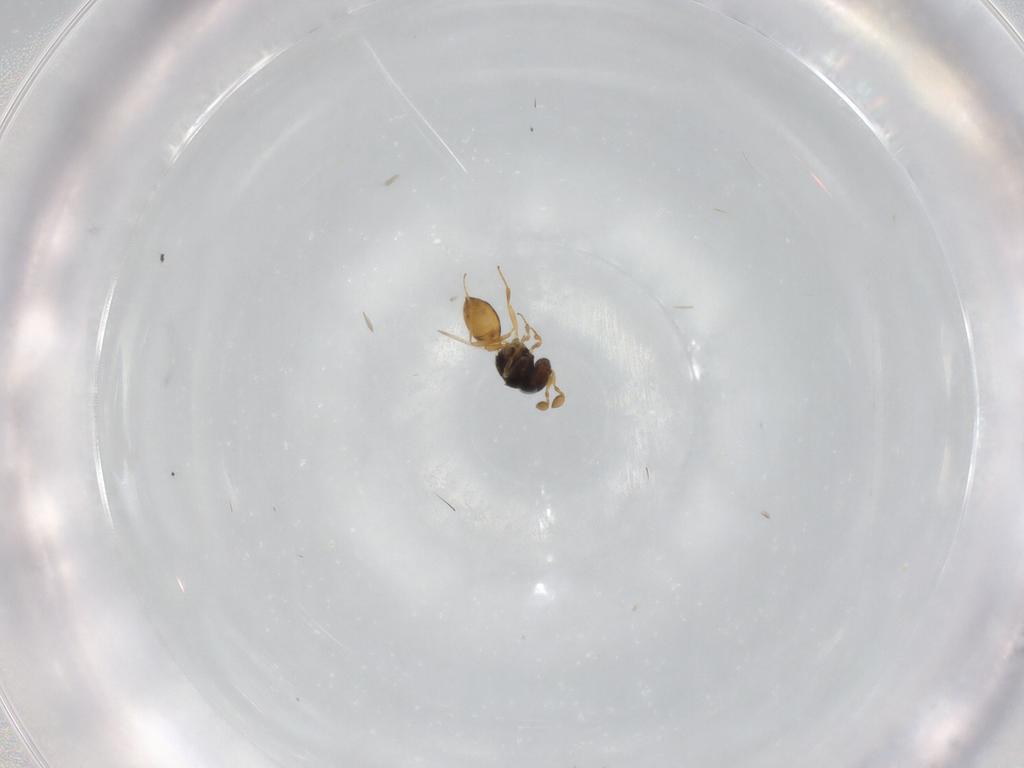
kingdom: Animalia
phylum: Arthropoda
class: Insecta
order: Hymenoptera
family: Scelionidae
